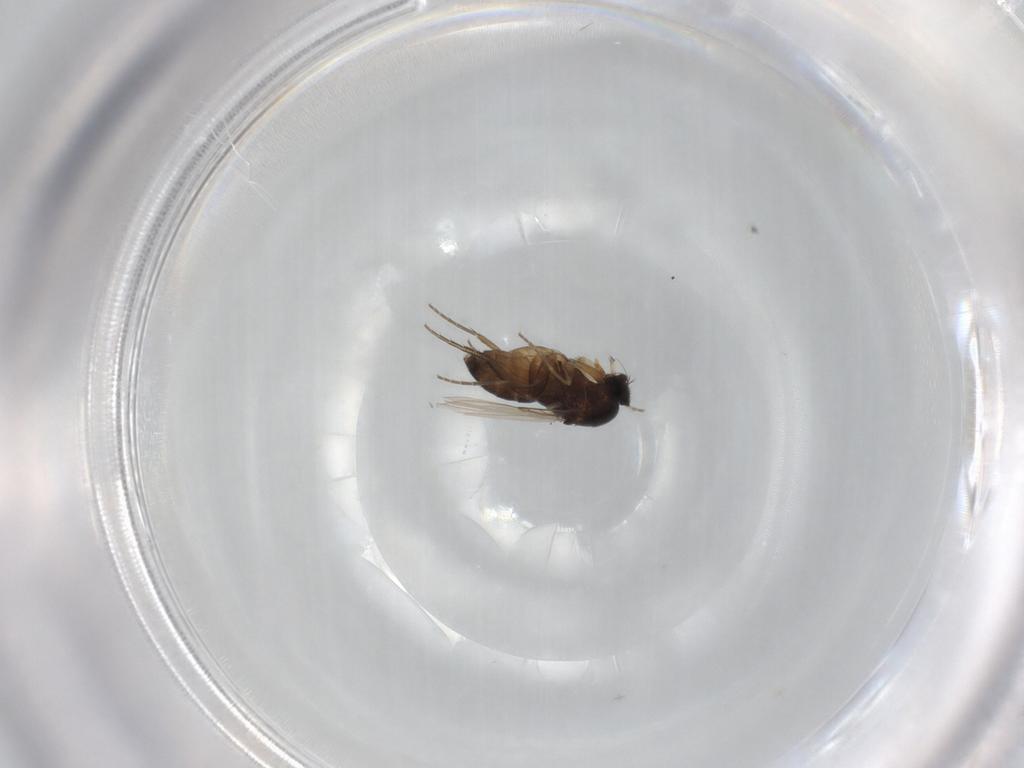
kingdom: Animalia
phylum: Arthropoda
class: Insecta
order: Diptera
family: Phoridae
